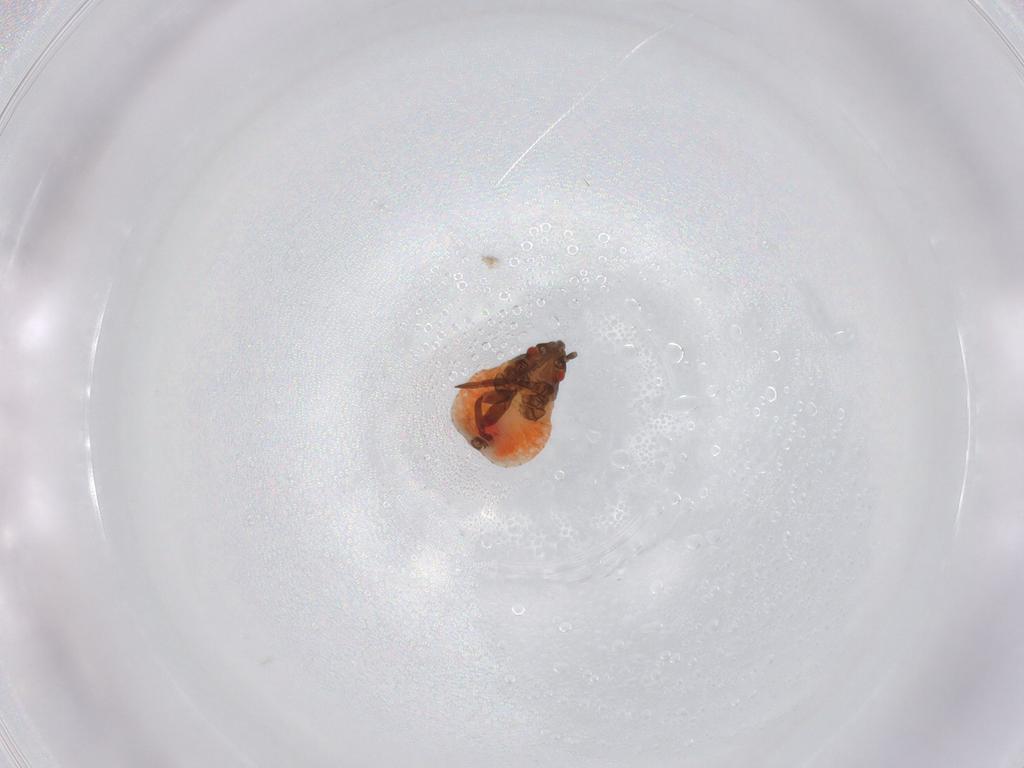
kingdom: Animalia
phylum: Arthropoda
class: Insecta
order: Hemiptera
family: Lygaeidae
